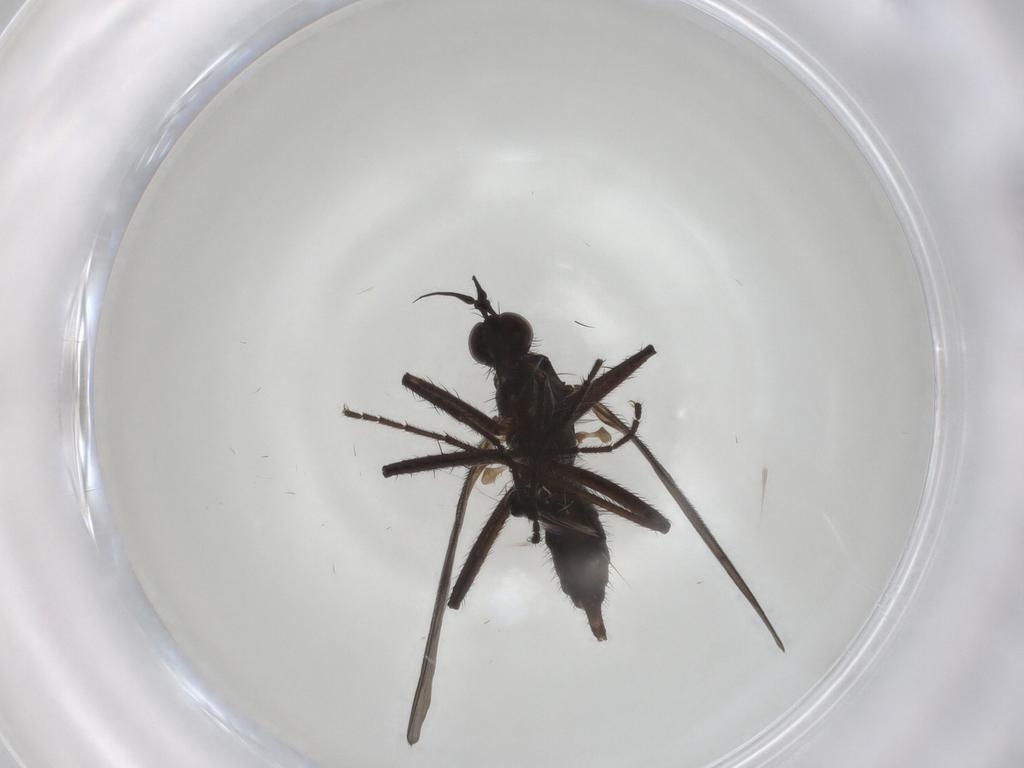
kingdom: Animalia
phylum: Arthropoda
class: Insecta
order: Diptera
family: Empididae
